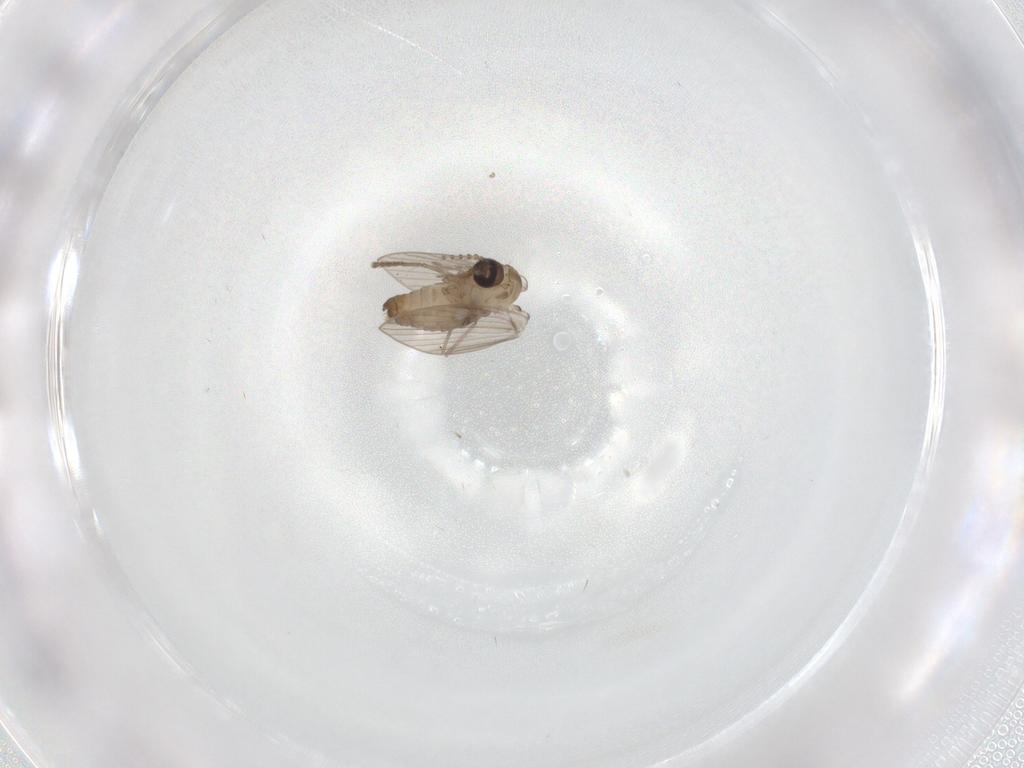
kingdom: Animalia
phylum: Arthropoda
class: Insecta
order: Diptera
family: Psychodidae
